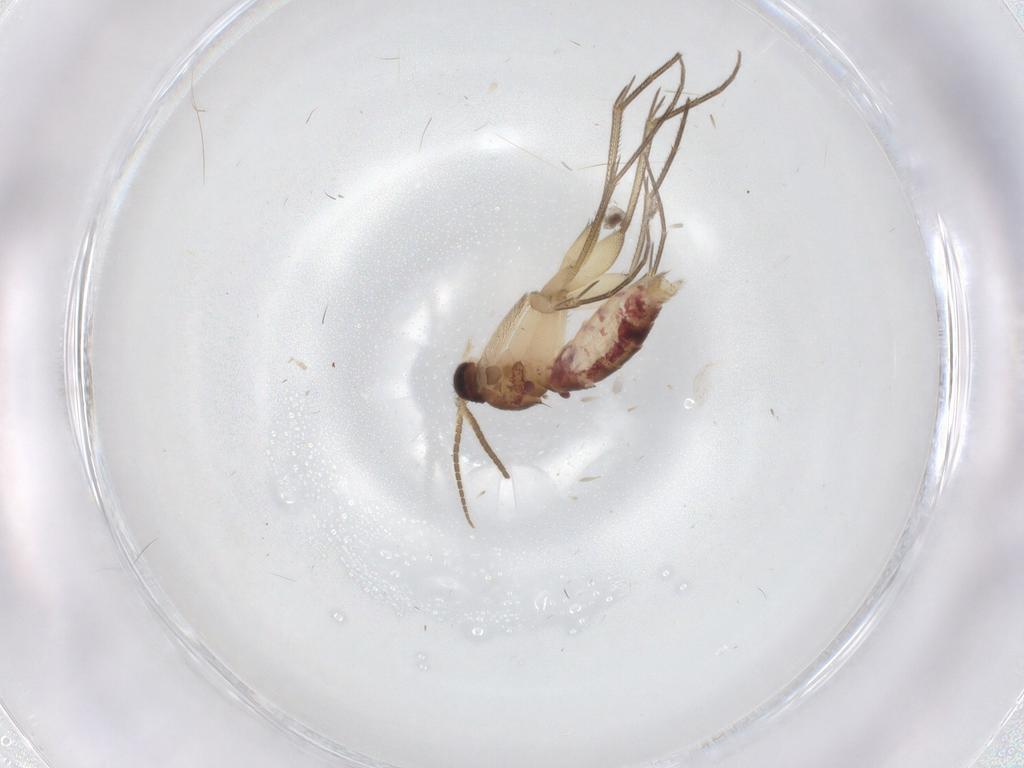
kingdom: Animalia
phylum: Arthropoda
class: Insecta
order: Diptera
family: Mycetophilidae
